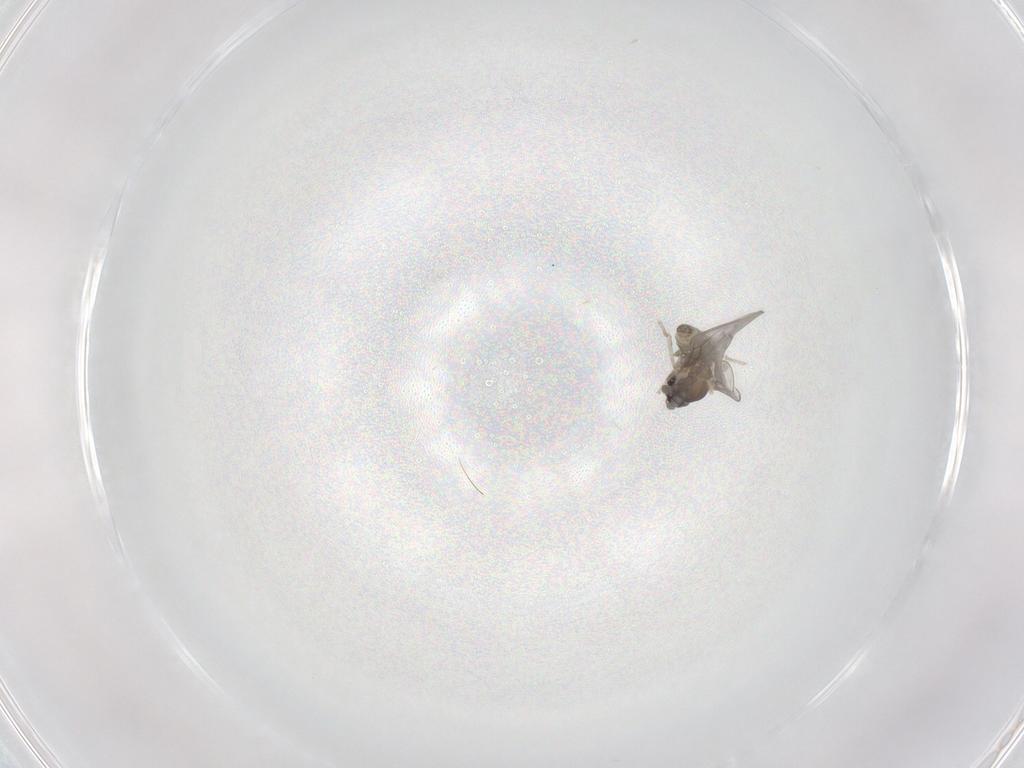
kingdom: Animalia
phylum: Arthropoda
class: Insecta
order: Diptera
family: Cecidomyiidae
